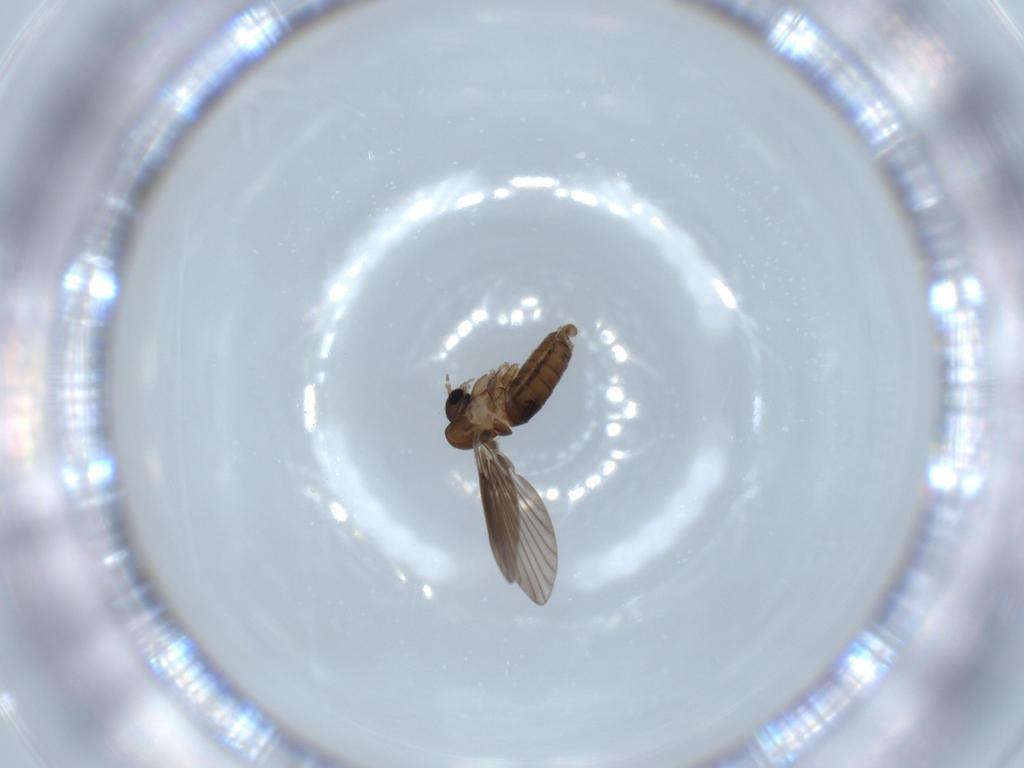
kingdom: Animalia
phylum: Arthropoda
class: Insecta
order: Diptera
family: Psychodidae
